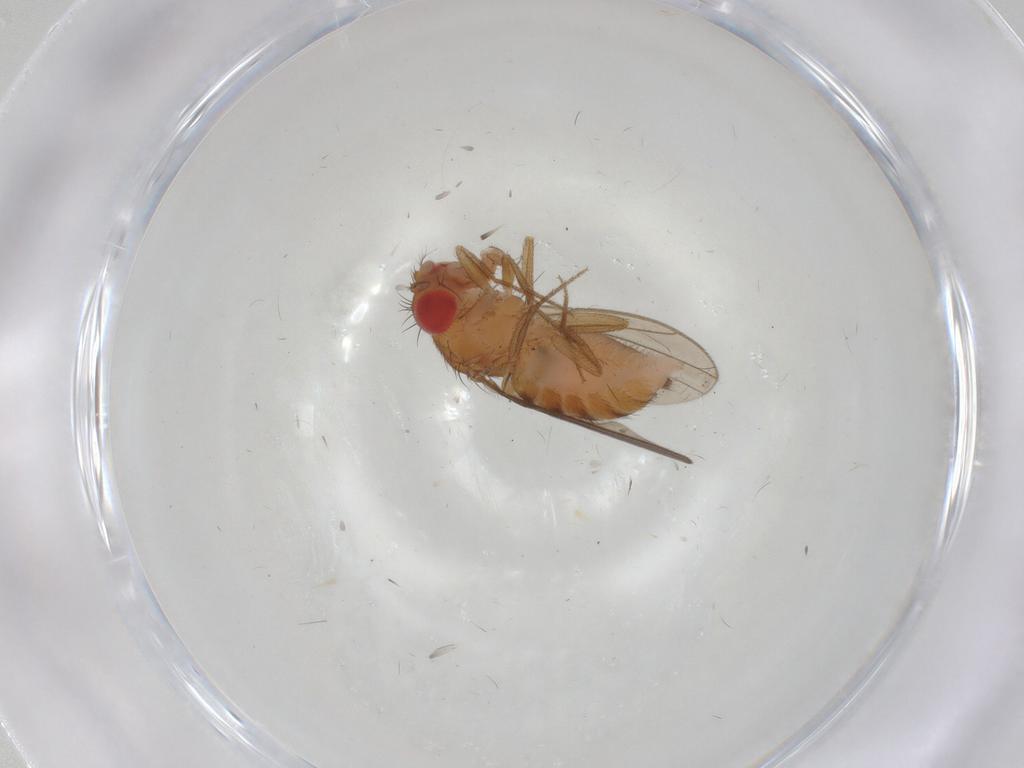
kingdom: Animalia
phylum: Arthropoda
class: Insecta
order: Diptera
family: Drosophilidae
